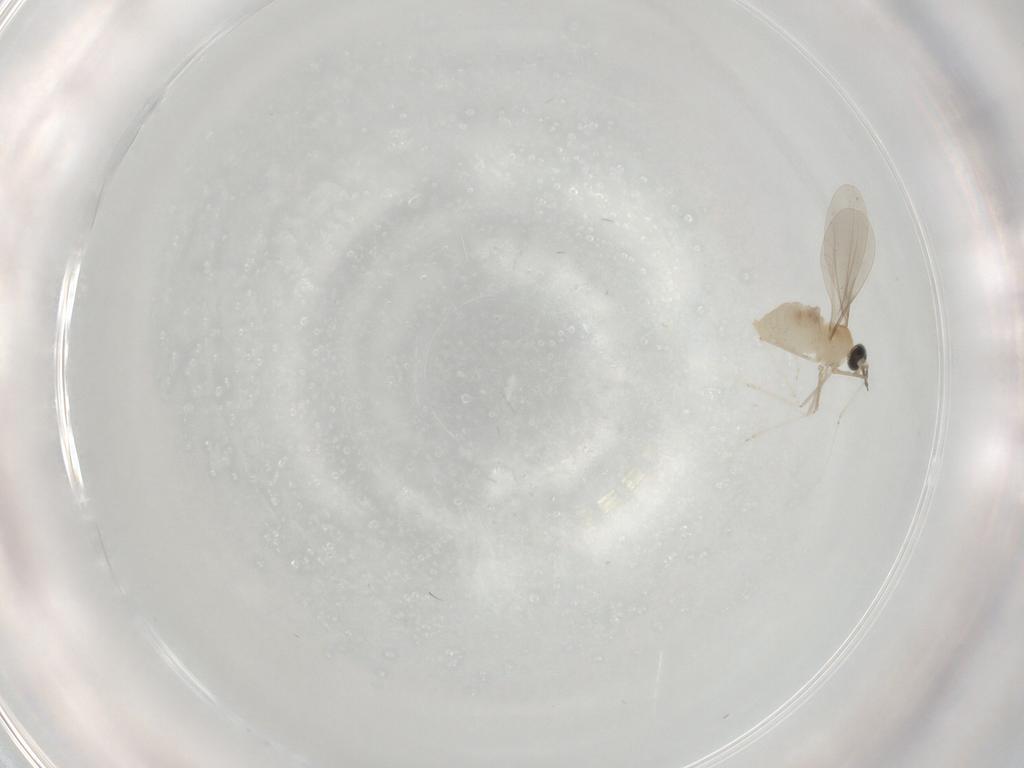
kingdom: Animalia
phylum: Arthropoda
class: Insecta
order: Diptera
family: Cecidomyiidae
